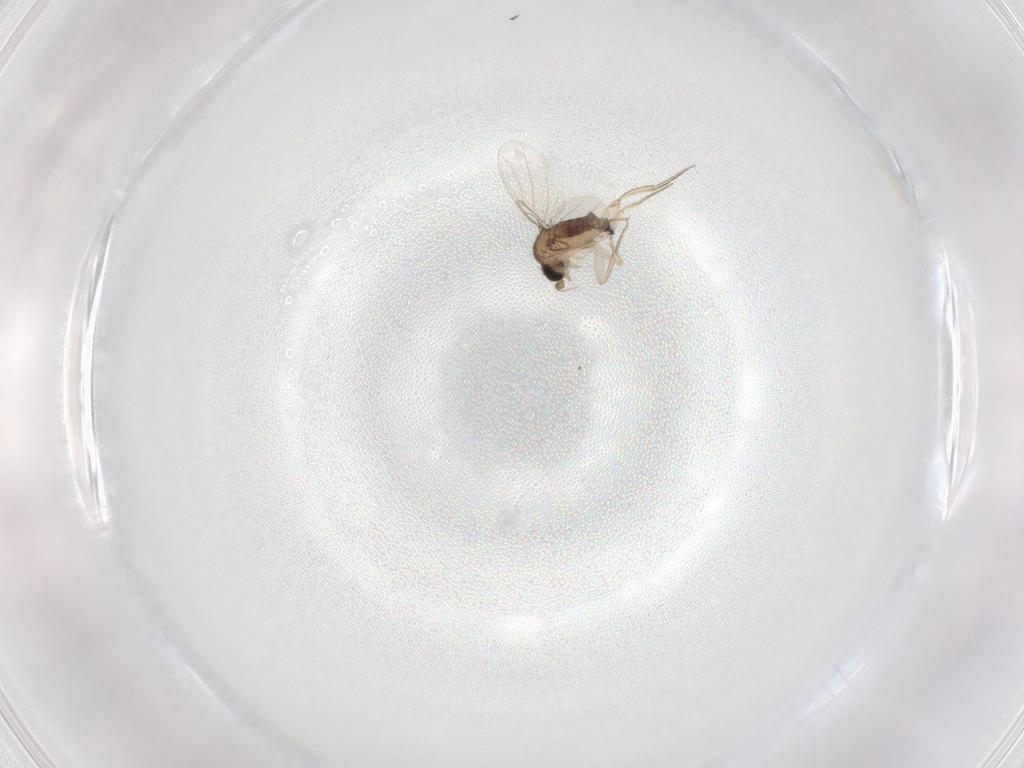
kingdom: Animalia
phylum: Arthropoda
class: Insecta
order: Diptera
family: Phoridae
